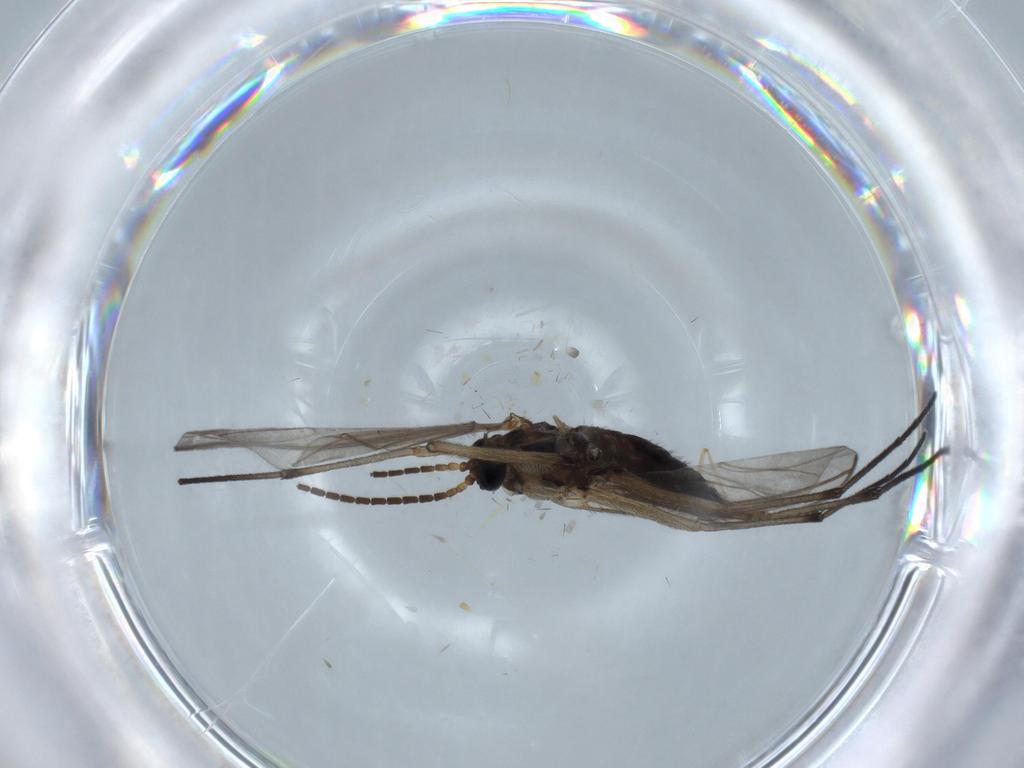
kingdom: Animalia
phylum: Arthropoda
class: Insecta
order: Diptera
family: Sciaridae
